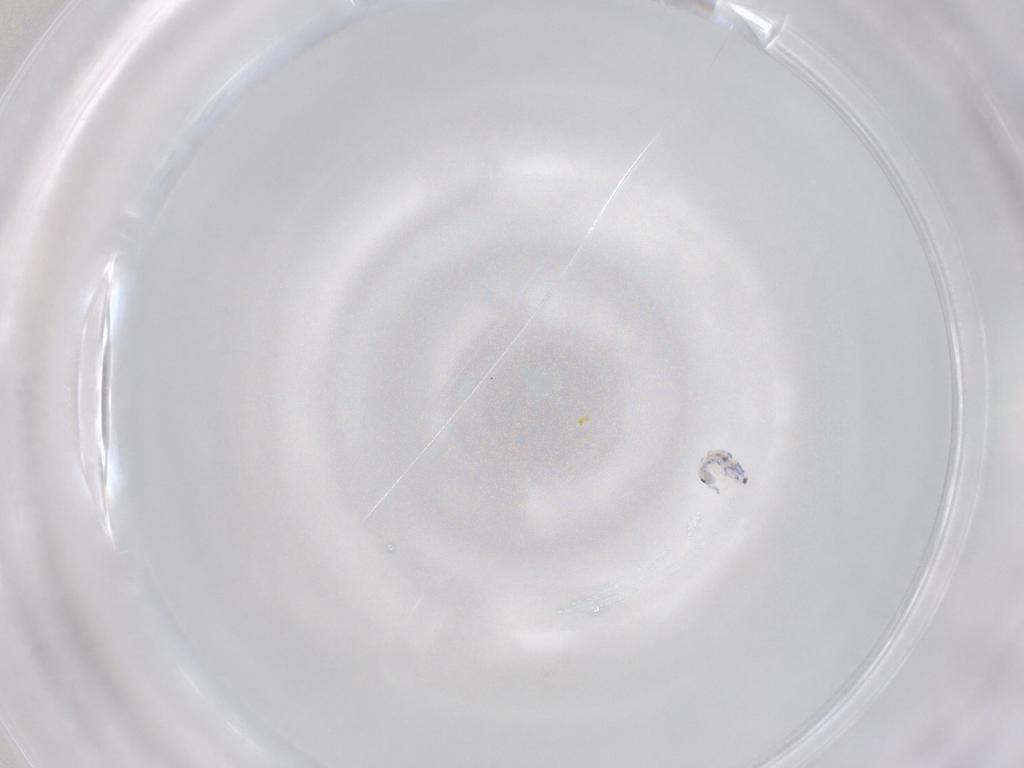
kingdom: Animalia
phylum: Arthropoda
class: Collembola
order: Entomobryomorpha
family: Entomobryidae
